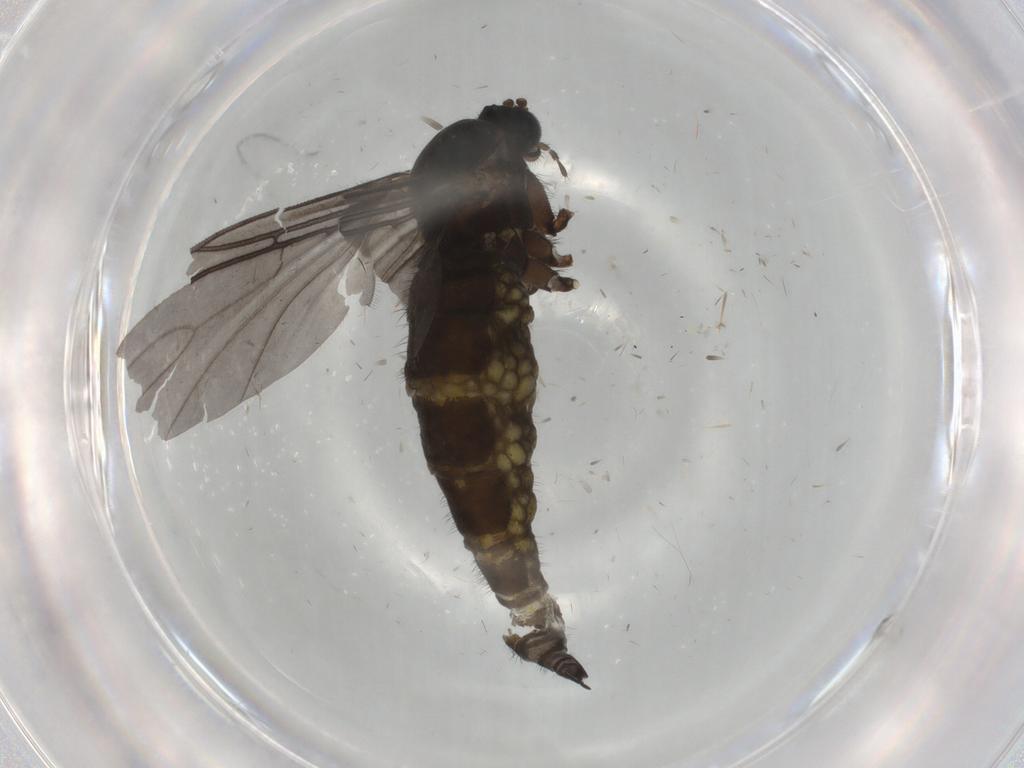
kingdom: Animalia
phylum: Arthropoda
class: Insecta
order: Diptera
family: Sciaridae
